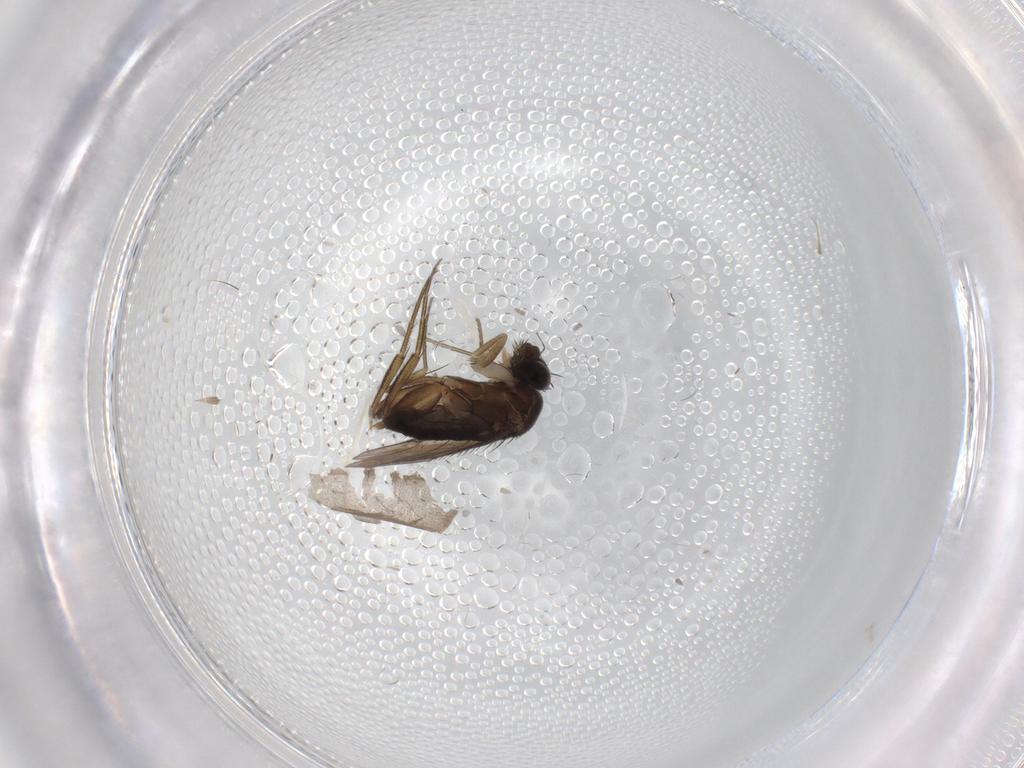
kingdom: Animalia
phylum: Arthropoda
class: Insecta
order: Diptera
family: Phoridae
